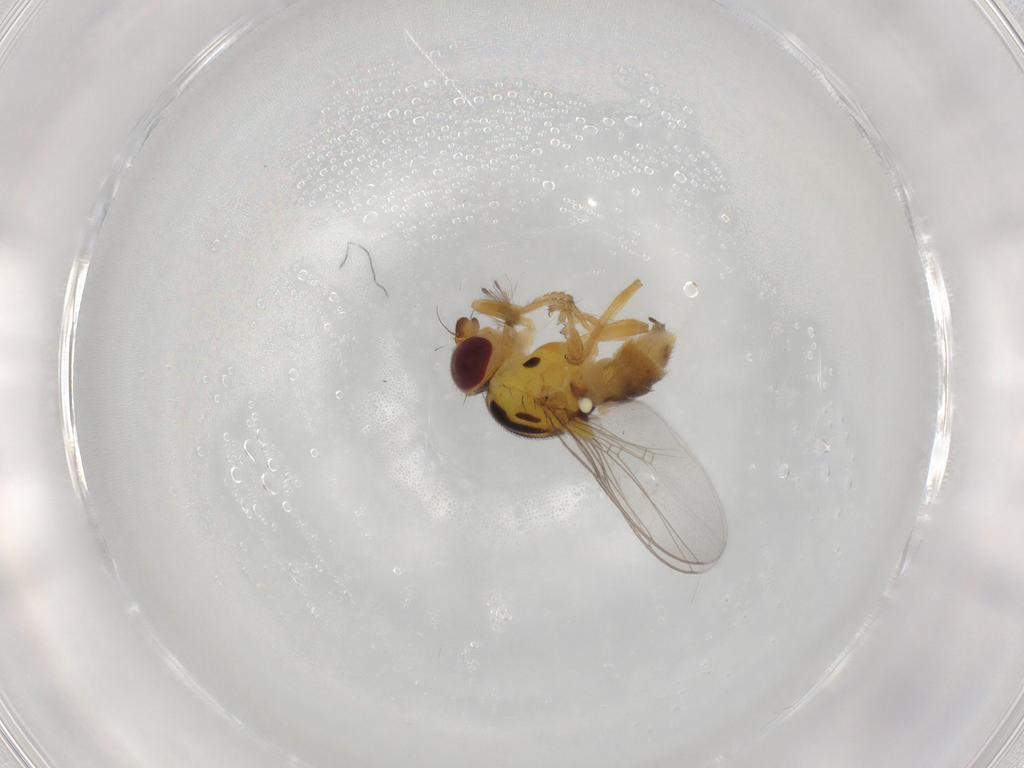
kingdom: Animalia
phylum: Arthropoda
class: Insecta
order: Diptera
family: Chloropidae
